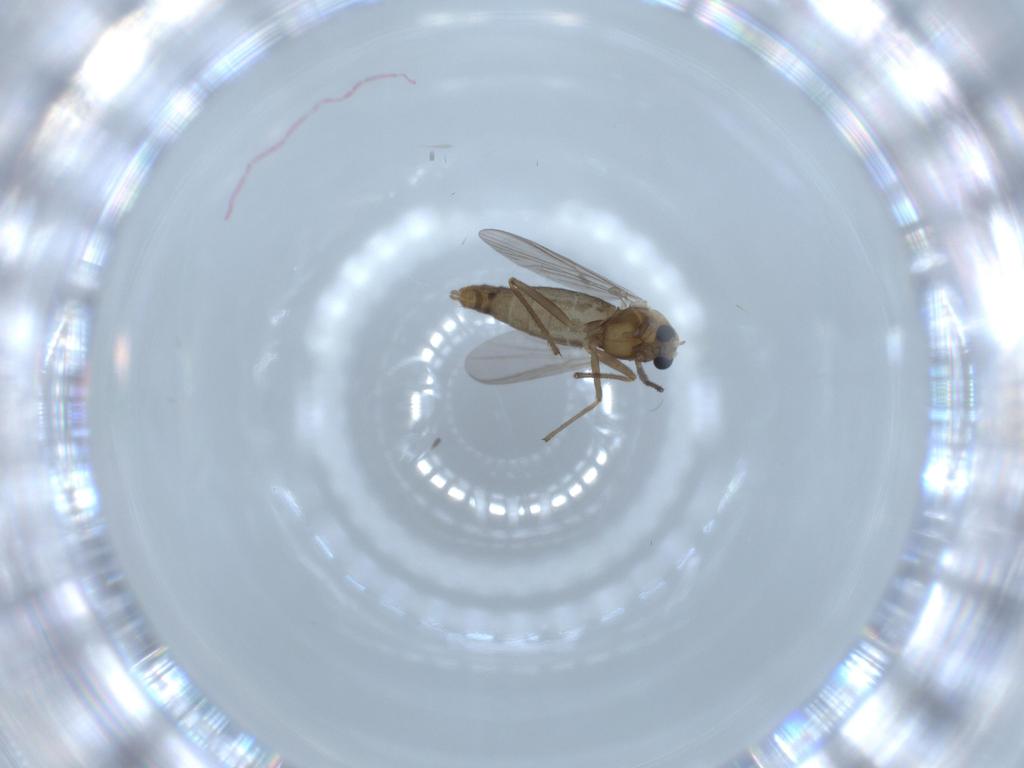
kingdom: Animalia
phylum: Arthropoda
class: Insecta
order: Diptera
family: Chironomidae
